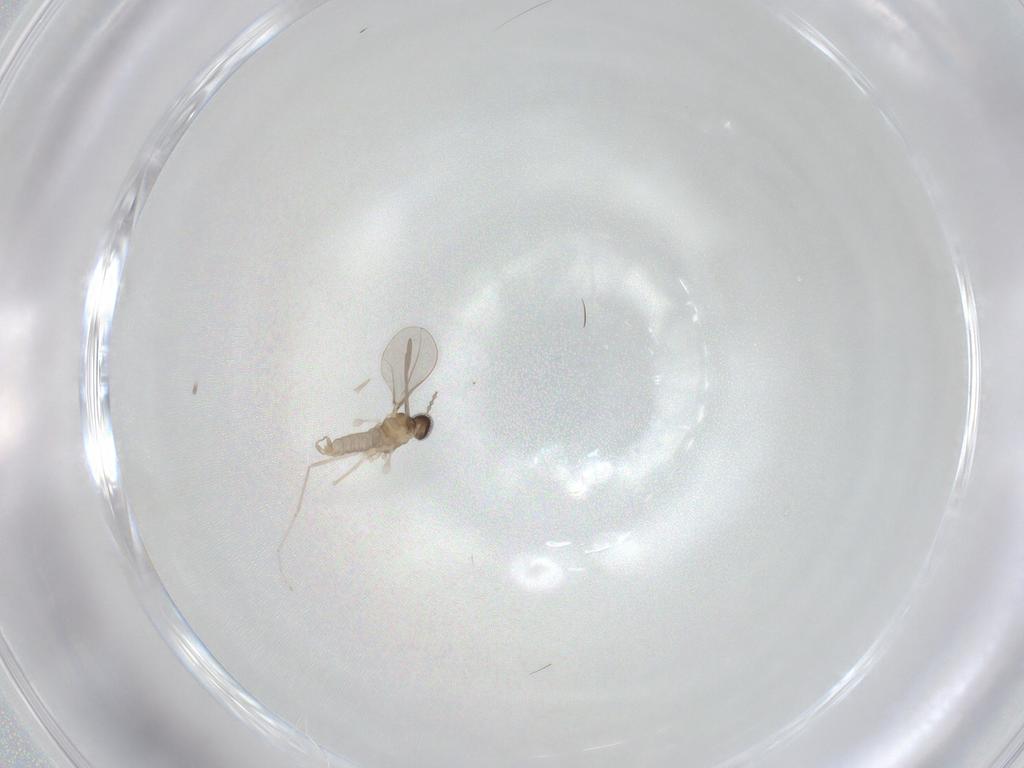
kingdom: Animalia
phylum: Arthropoda
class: Insecta
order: Diptera
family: Cecidomyiidae
